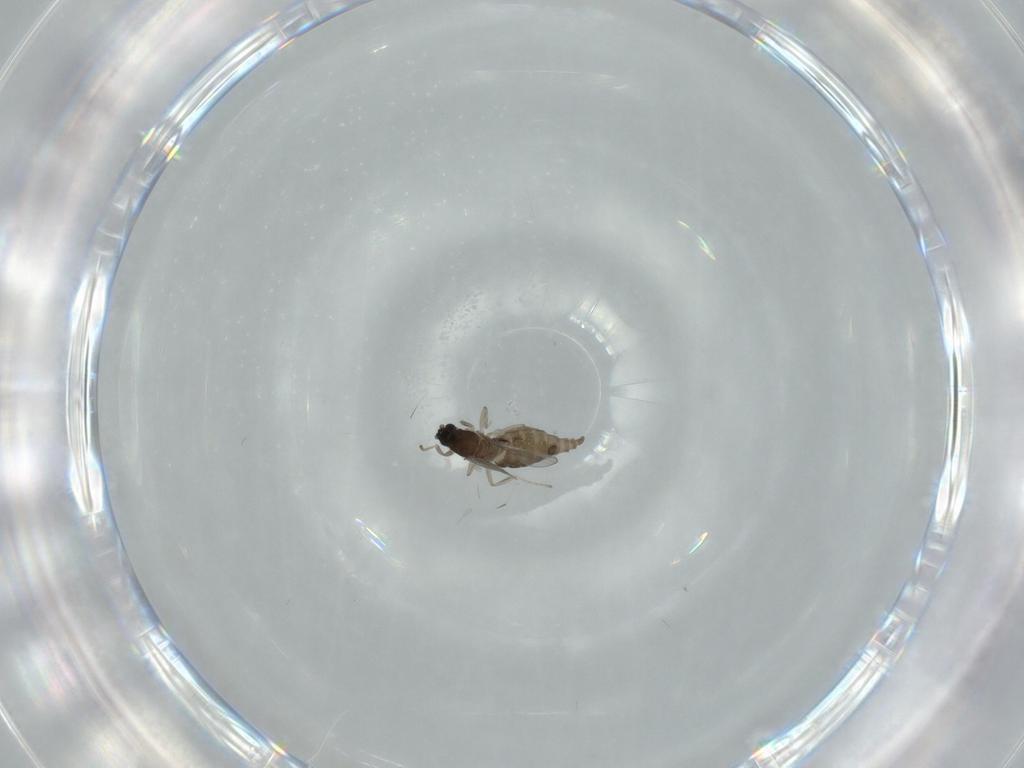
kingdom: Animalia
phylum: Arthropoda
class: Insecta
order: Diptera
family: Cecidomyiidae
